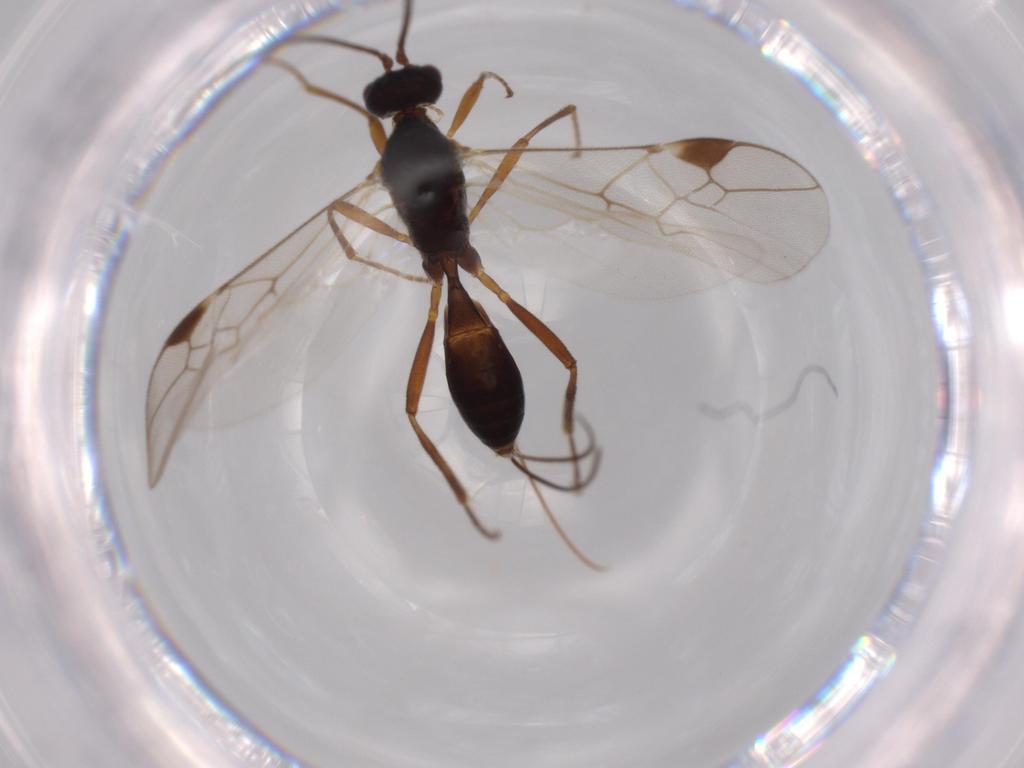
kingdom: Animalia
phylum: Arthropoda
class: Insecta
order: Hymenoptera
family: Braconidae
